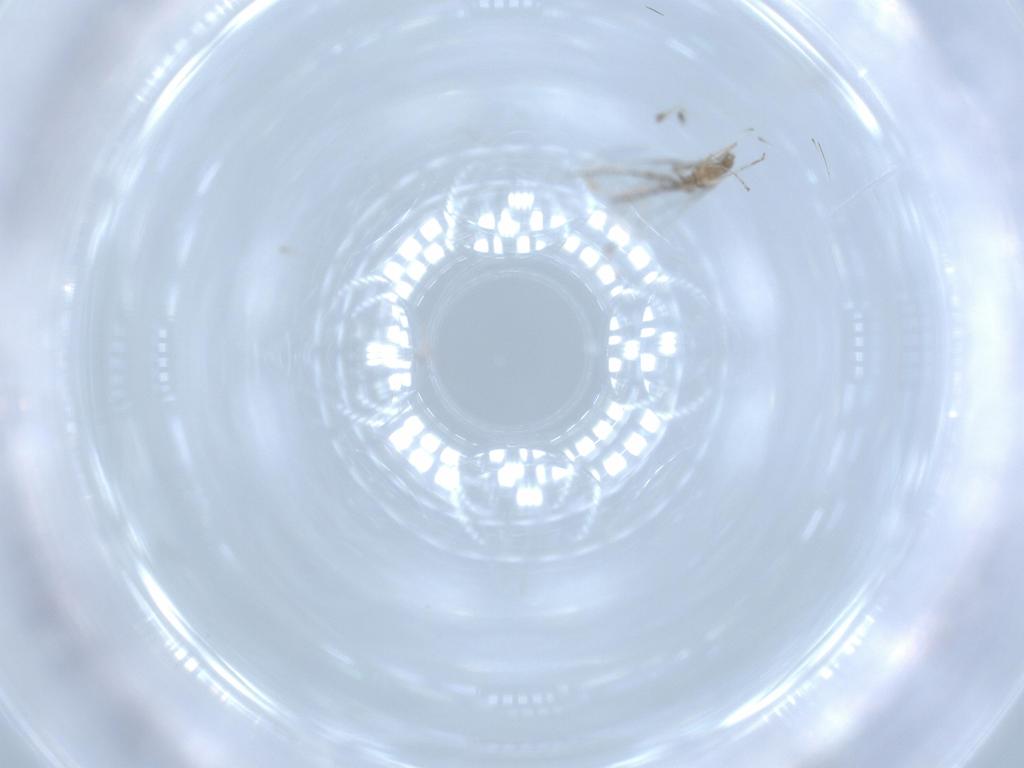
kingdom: Animalia
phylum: Arthropoda
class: Insecta
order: Diptera
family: Cecidomyiidae
